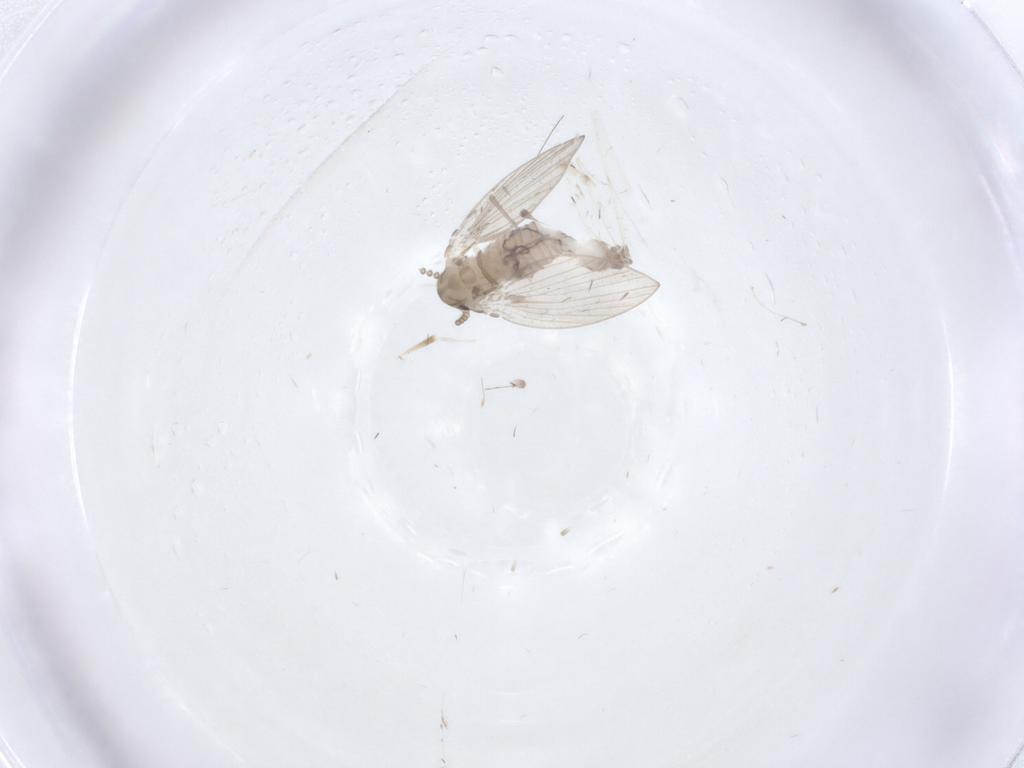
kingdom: Animalia
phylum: Arthropoda
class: Insecta
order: Diptera
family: Psychodidae
